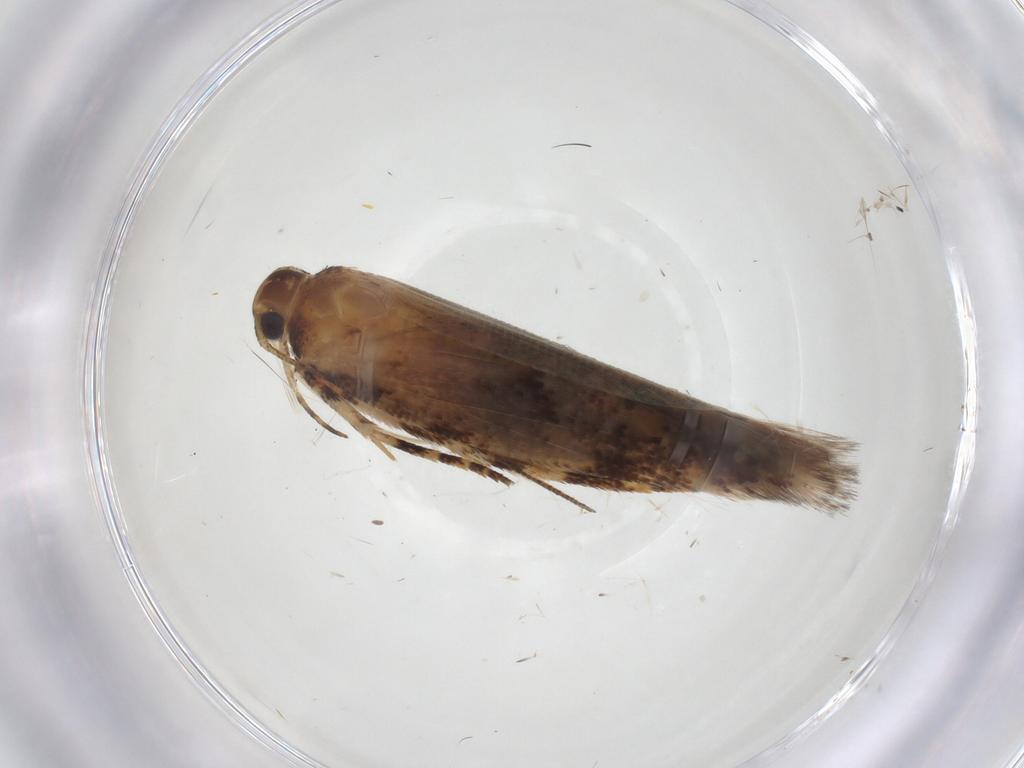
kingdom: Animalia
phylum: Arthropoda
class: Insecta
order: Lepidoptera
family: Gelechiidae
